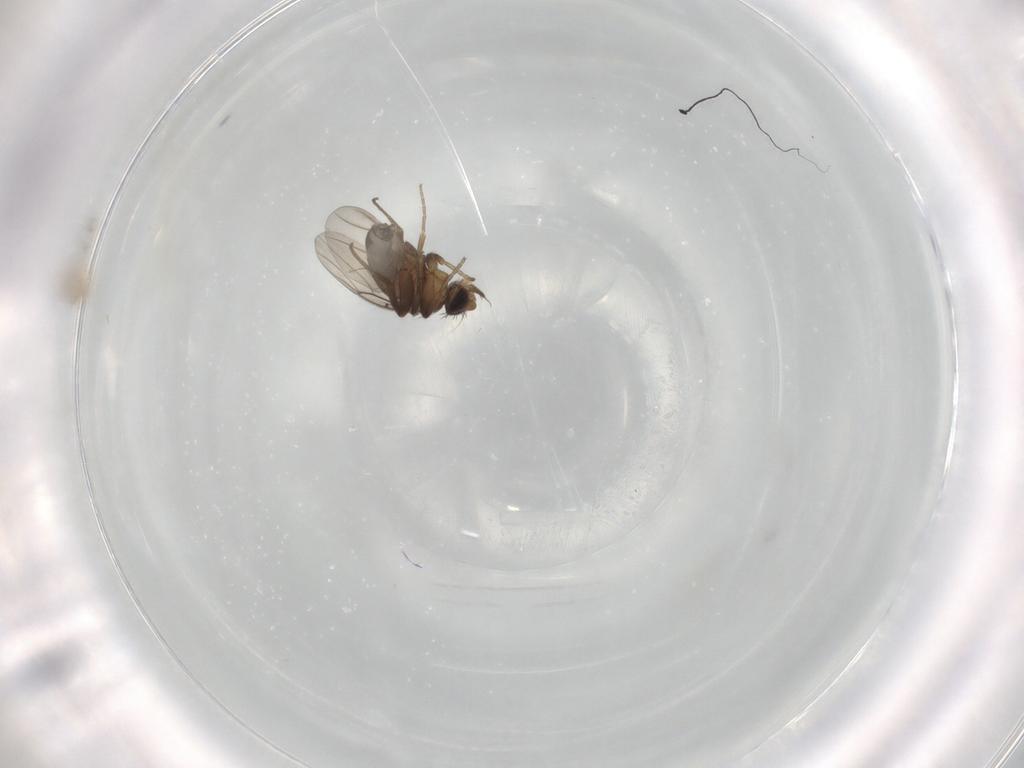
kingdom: Animalia
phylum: Arthropoda
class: Insecta
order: Diptera
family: Phoridae
